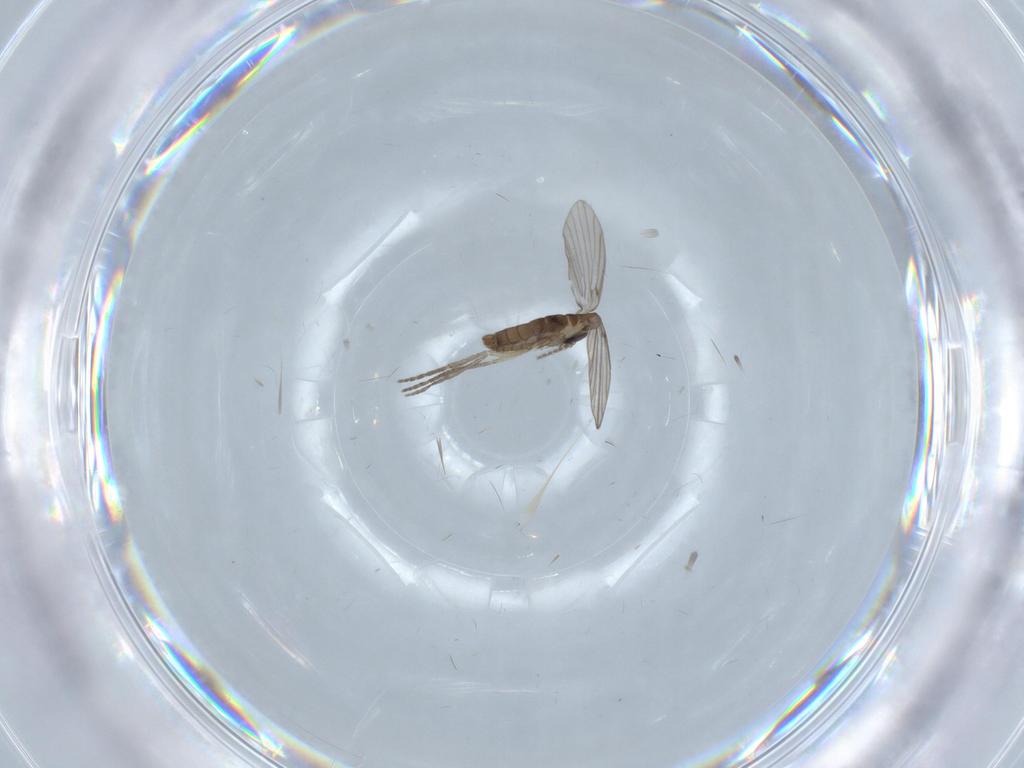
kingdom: Animalia
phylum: Arthropoda
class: Insecta
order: Diptera
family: Psychodidae
